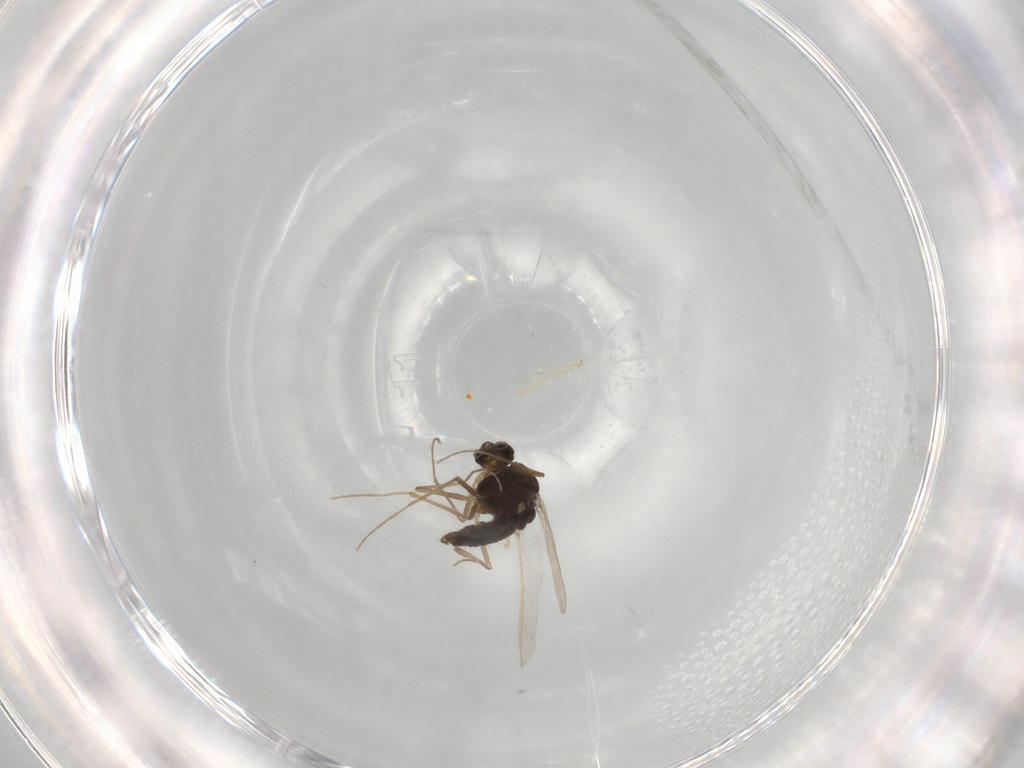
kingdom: Animalia
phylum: Arthropoda
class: Insecta
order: Diptera
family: Chironomidae
